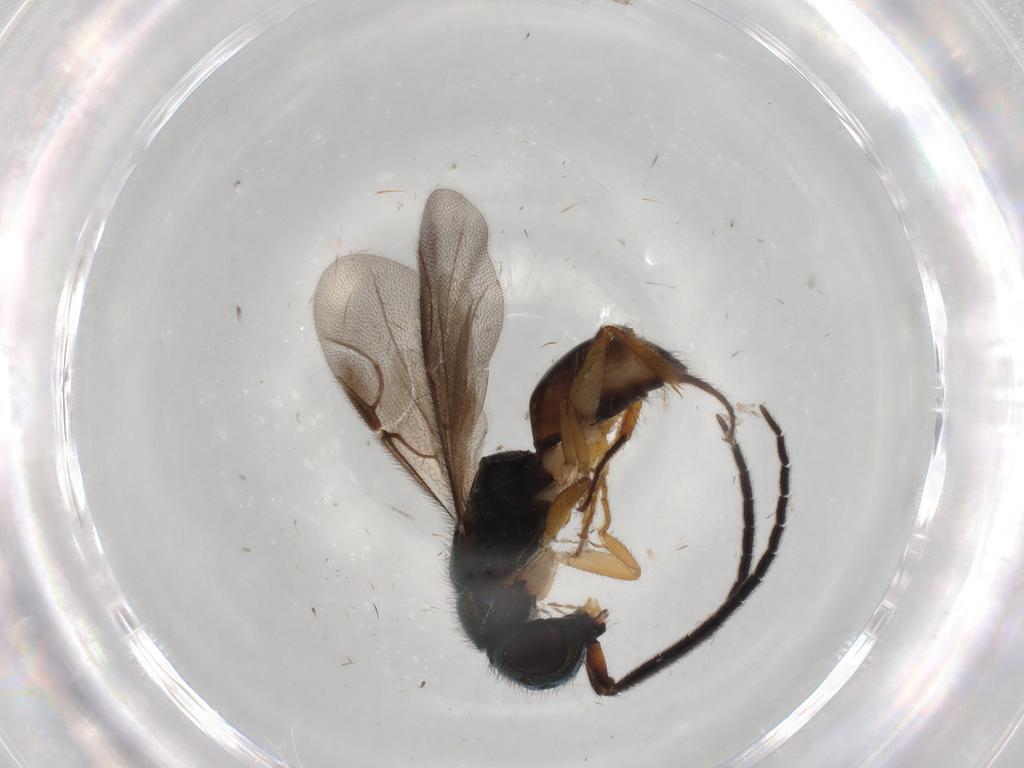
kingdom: Animalia
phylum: Arthropoda
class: Insecta
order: Hymenoptera
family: Chrysididae
